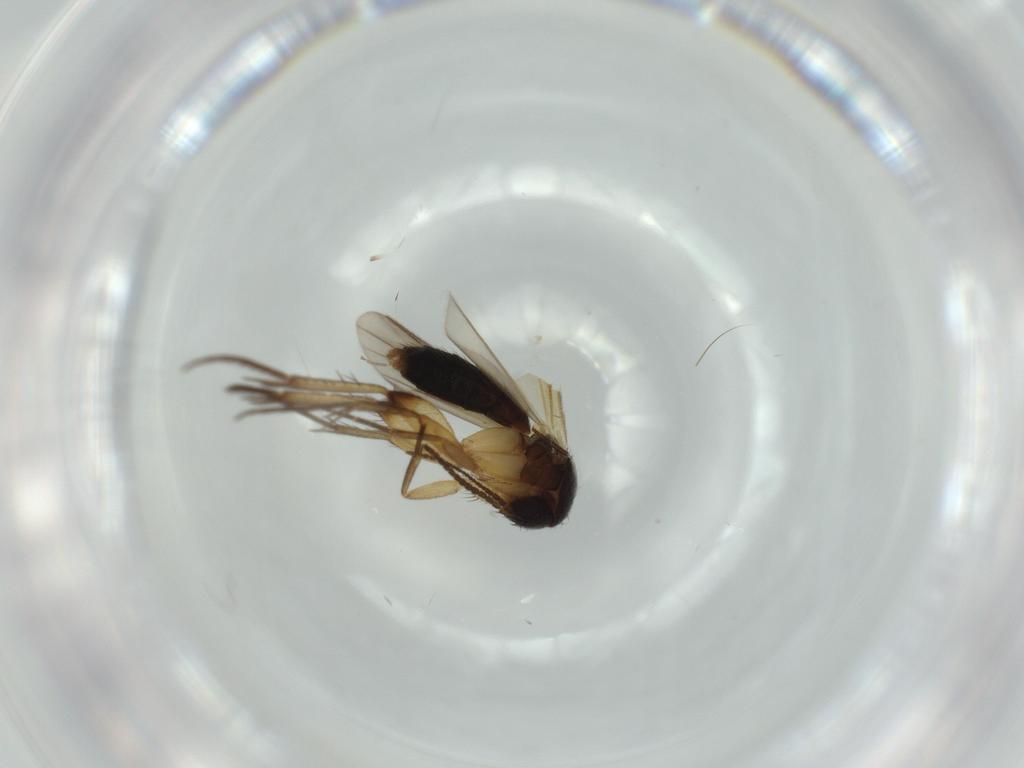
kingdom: Animalia
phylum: Arthropoda
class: Insecta
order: Diptera
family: Mycetophilidae
